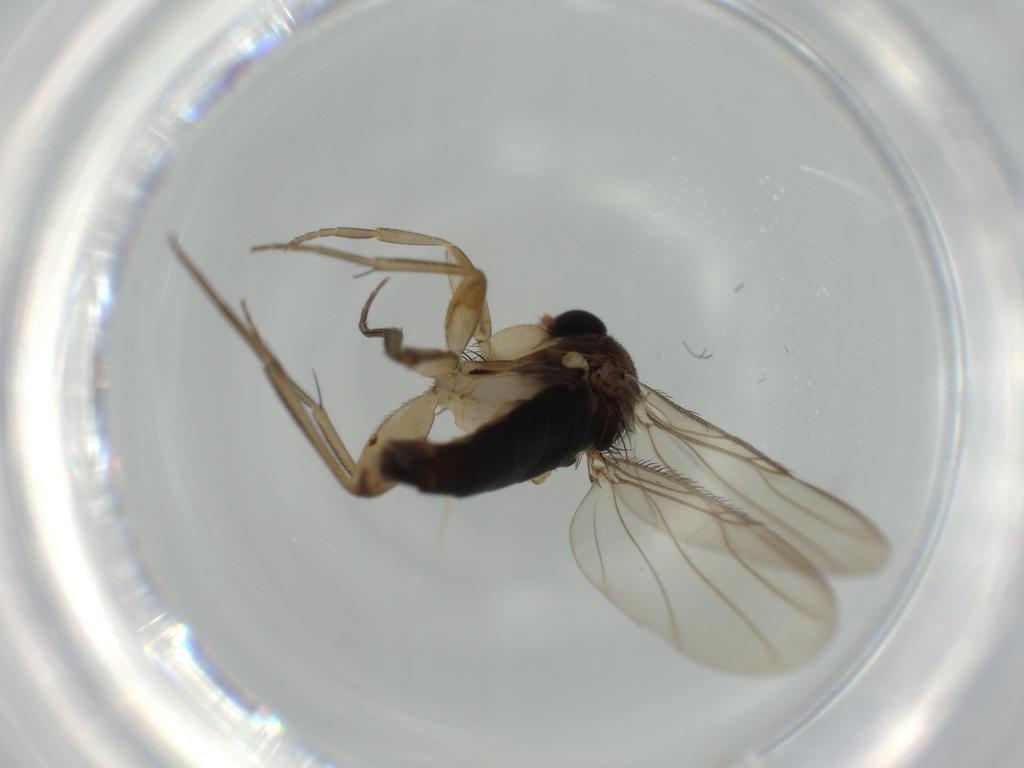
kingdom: Animalia
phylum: Arthropoda
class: Insecta
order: Diptera
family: Phoridae
